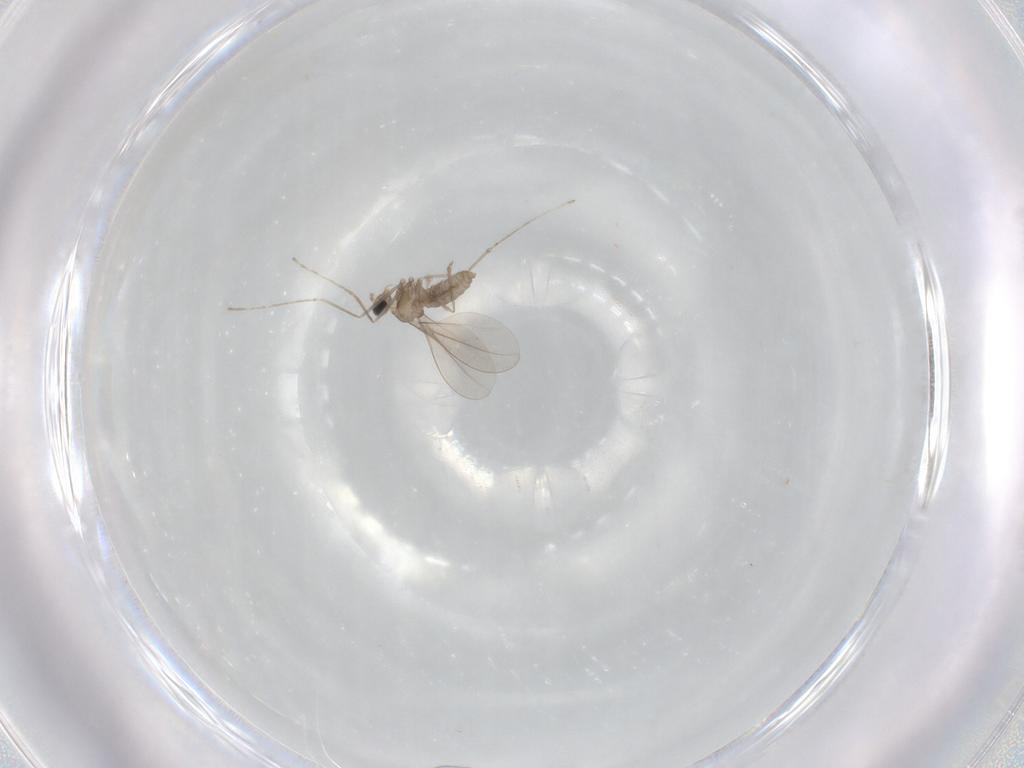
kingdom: Animalia
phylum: Arthropoda
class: Insecta
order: Diptera
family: Cecidomyiidae
